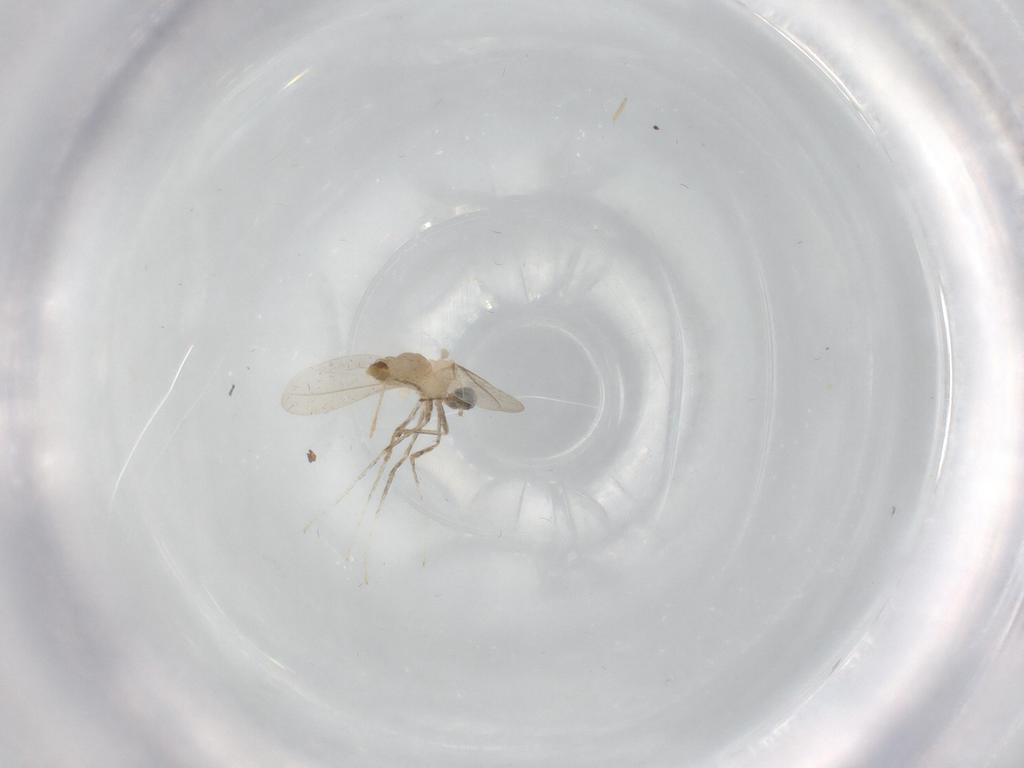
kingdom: Animalia
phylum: Arthropoda
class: Insecta
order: Diptera
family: Cecidomyiidae
